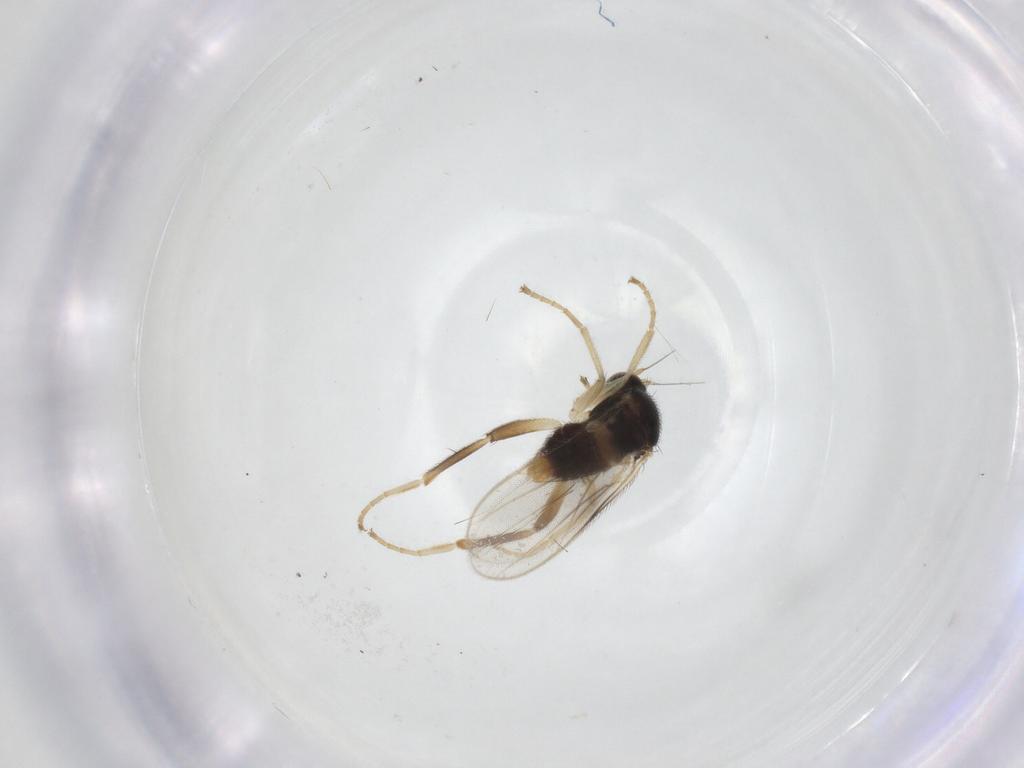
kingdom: Animalia
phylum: Arthropoda
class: Insecta
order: Diptera
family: Hybotidae
